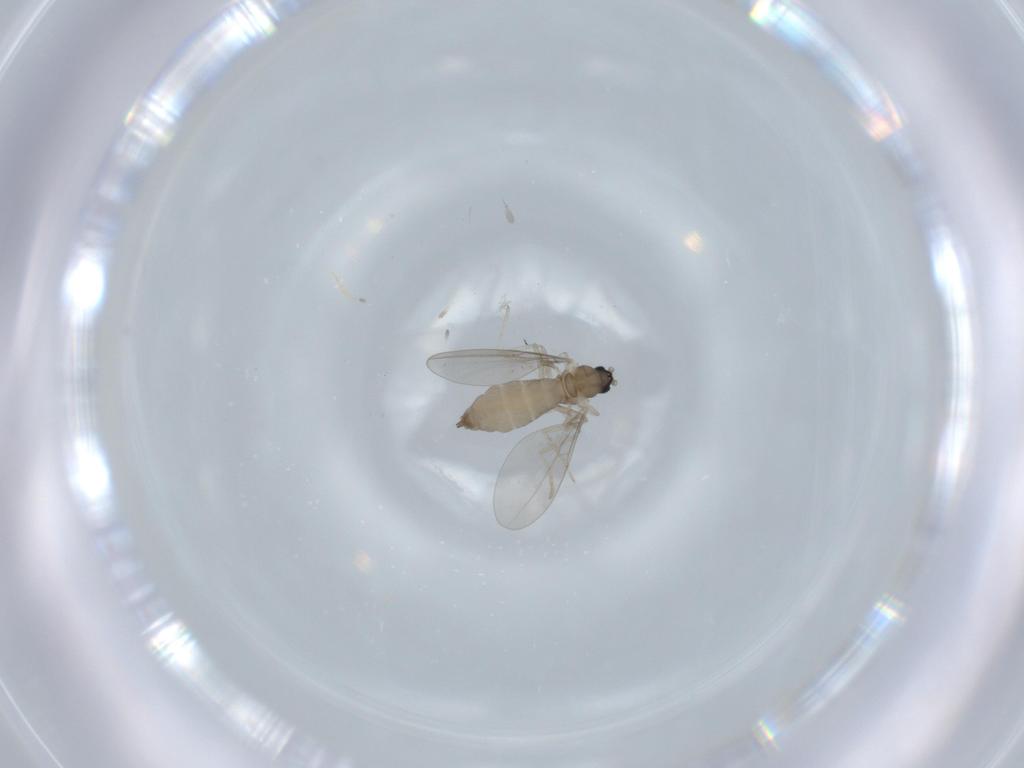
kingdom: Animalia
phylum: Arthropoda
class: Insecta
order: Diptera
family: Cecidomyiidae
